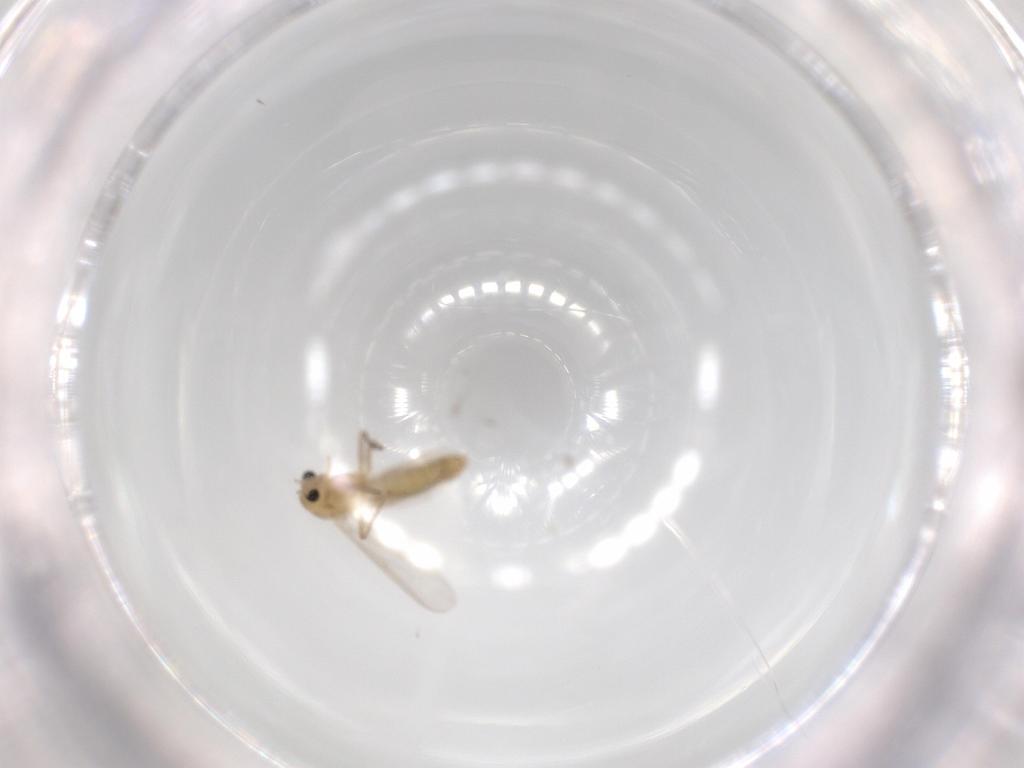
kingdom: Animalia
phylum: Arthropoda
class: Insecta
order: Diptera
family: Chironomidae
